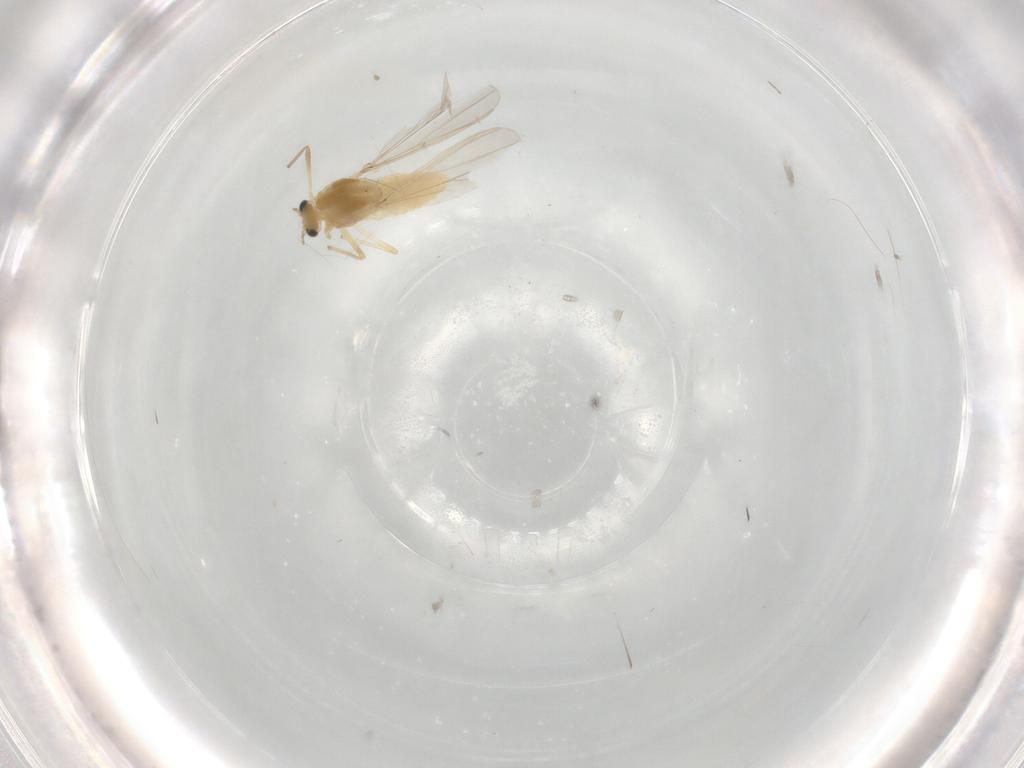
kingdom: Animalia
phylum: Arthropoda
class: Insecta
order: Diptera
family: Chironomidae
